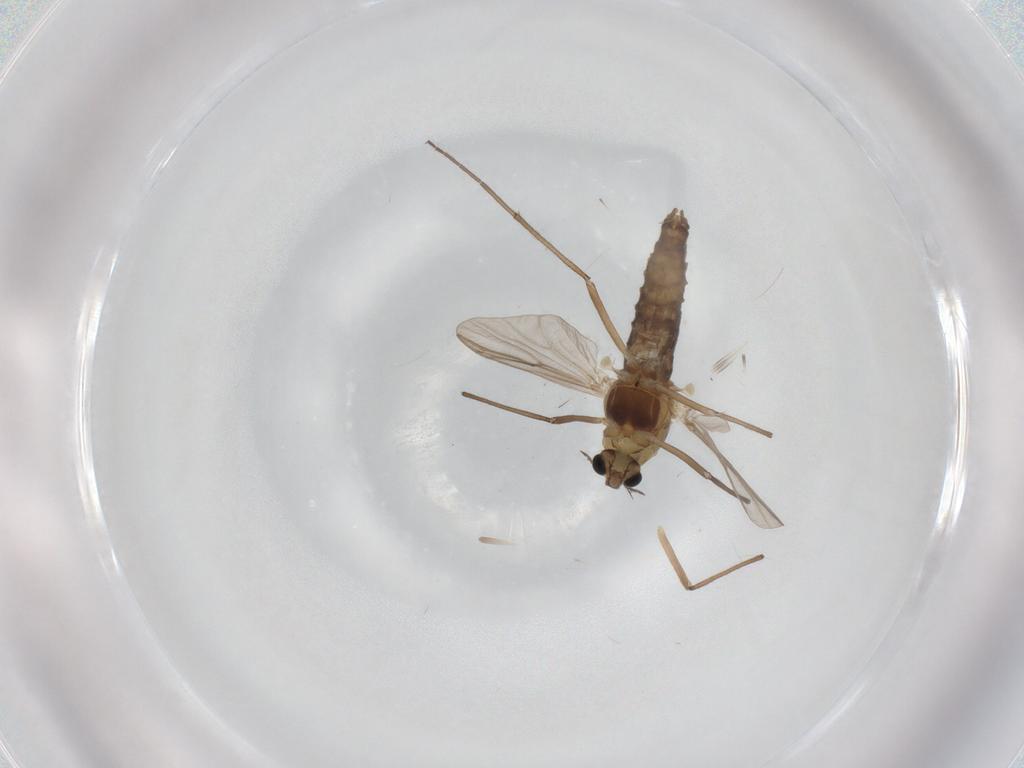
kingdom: Animalia
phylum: Arthropoda
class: Insecta
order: Diptera
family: Chironomidae
